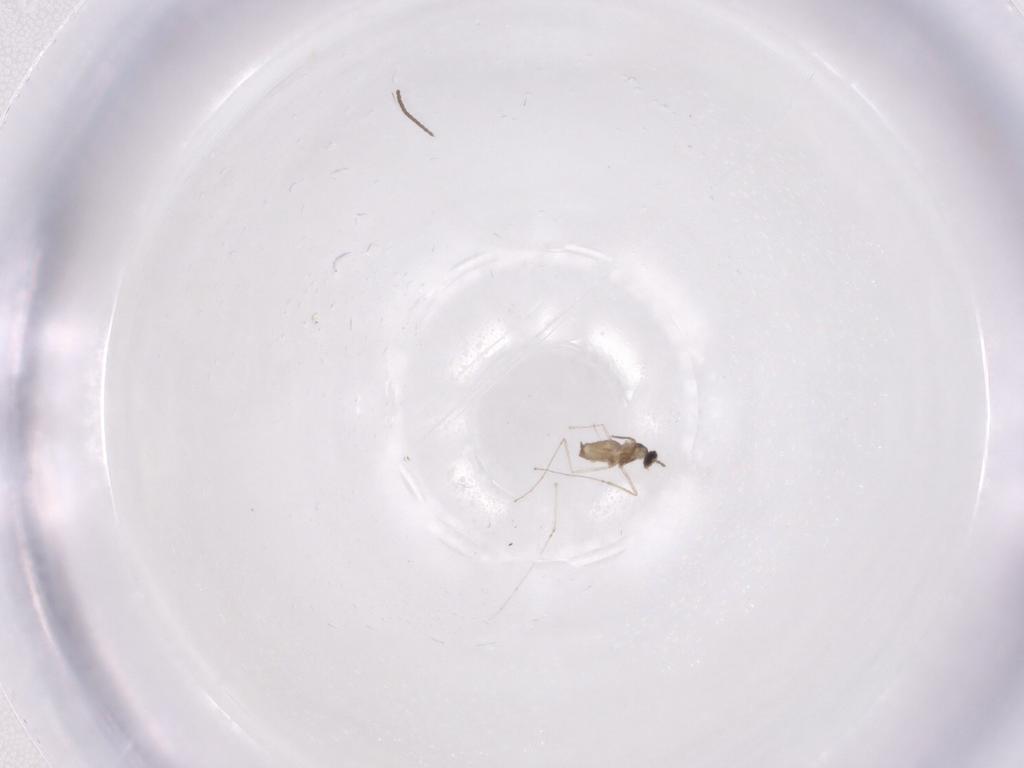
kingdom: Animalia
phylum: Arthropoda
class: Insecta
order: Diptera
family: Cecidomyiidae
